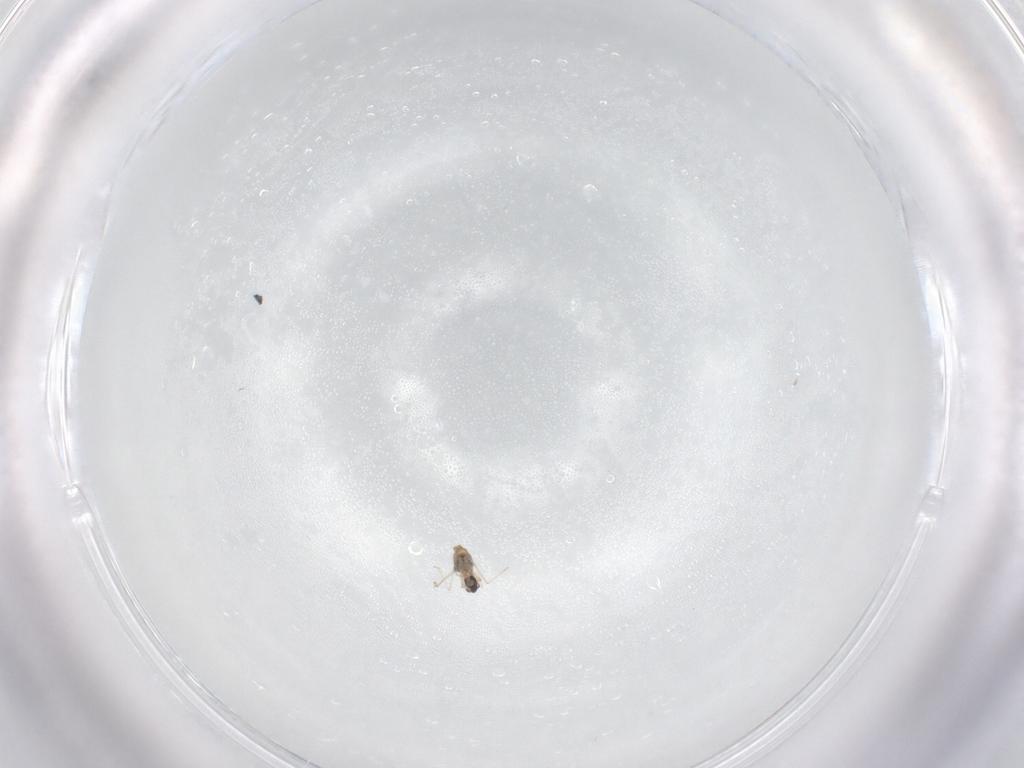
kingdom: Animalia
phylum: Arthropoda
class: Insecta
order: Diptera
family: Cecidomyiidae
